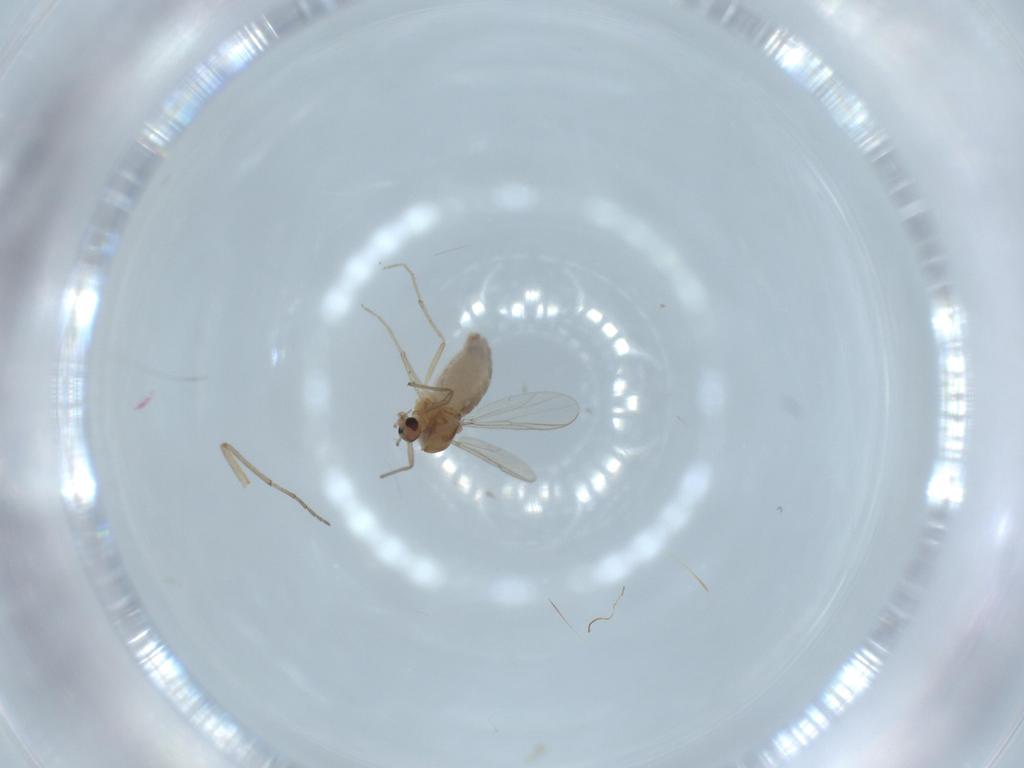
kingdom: Animalia
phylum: Arthropoda
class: Insecta
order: Diptera
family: Chironomidae
